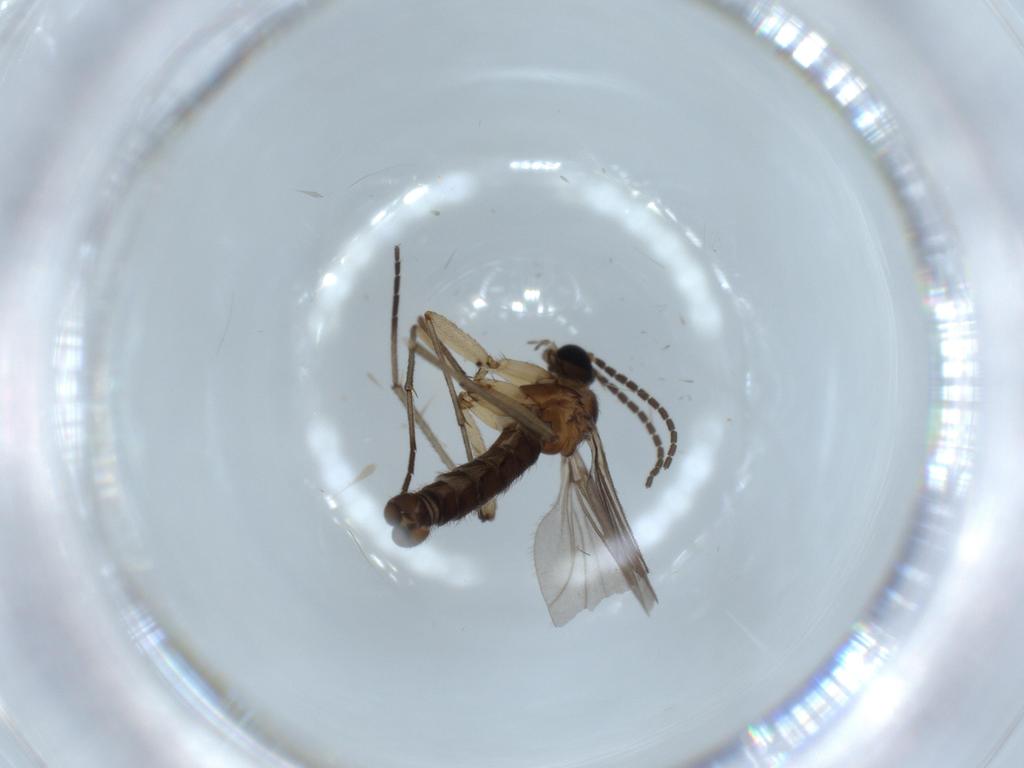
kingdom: Animalia
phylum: Arthropoda
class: Insecta
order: Diptera
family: Sciaridae
